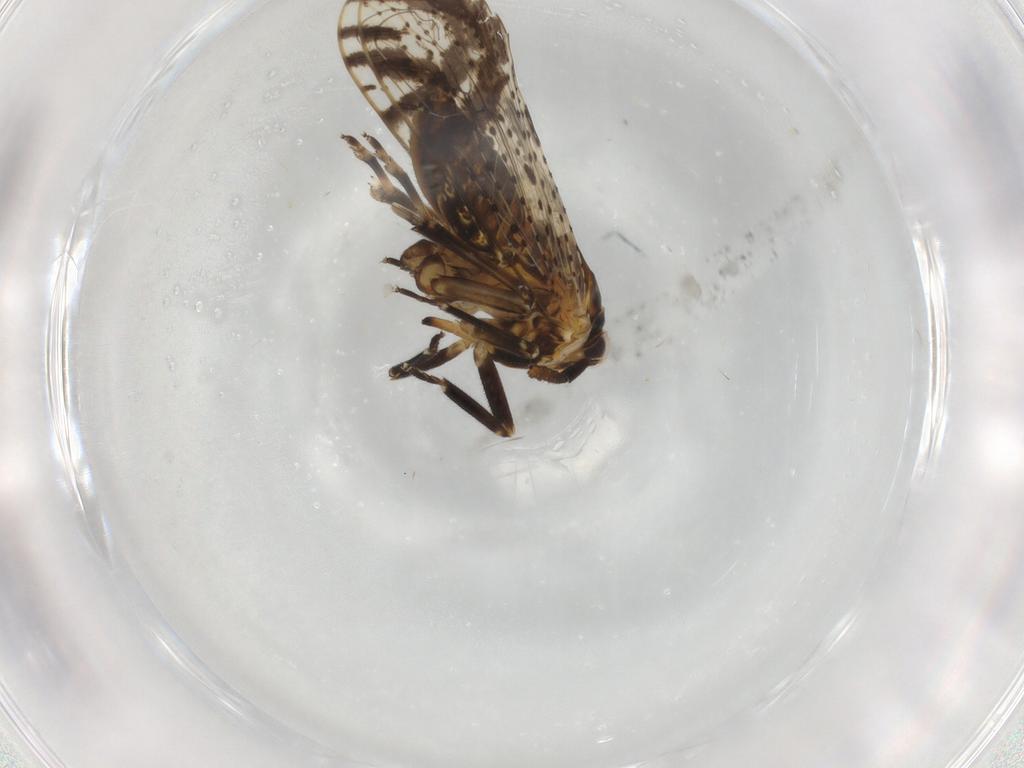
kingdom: Animalia
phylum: Arthropoda
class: Insecta
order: Hemiptera
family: Delphacidae
